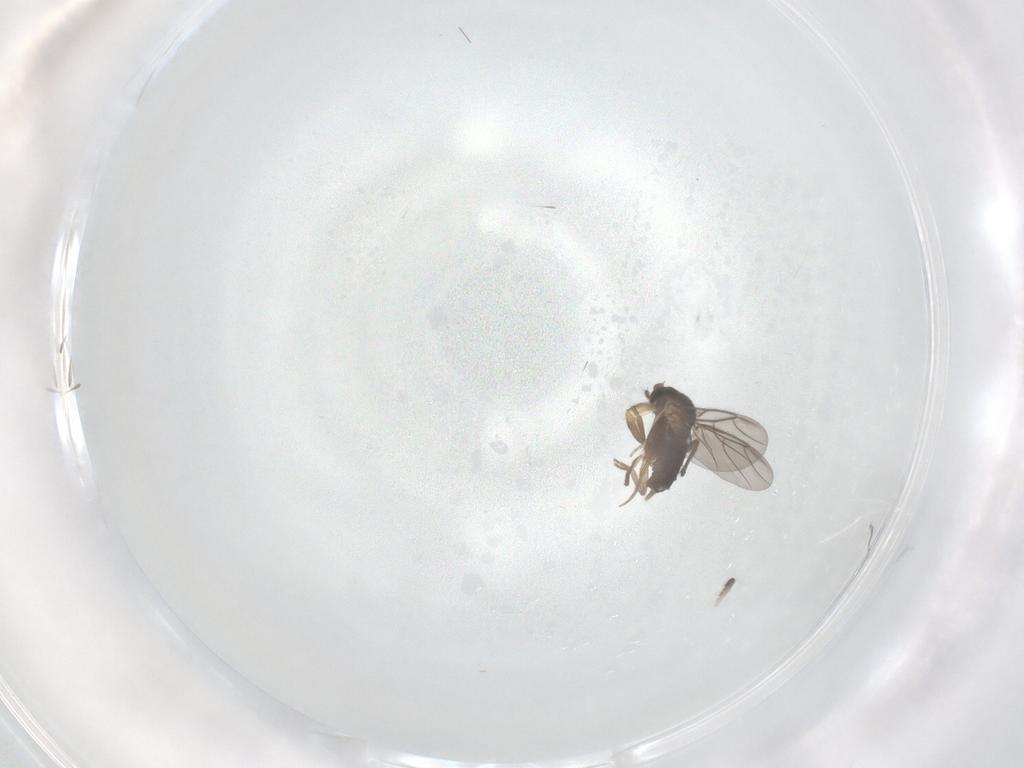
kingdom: Animalia
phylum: Arthropoda
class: Insecta
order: Diptera
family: Phoridae
